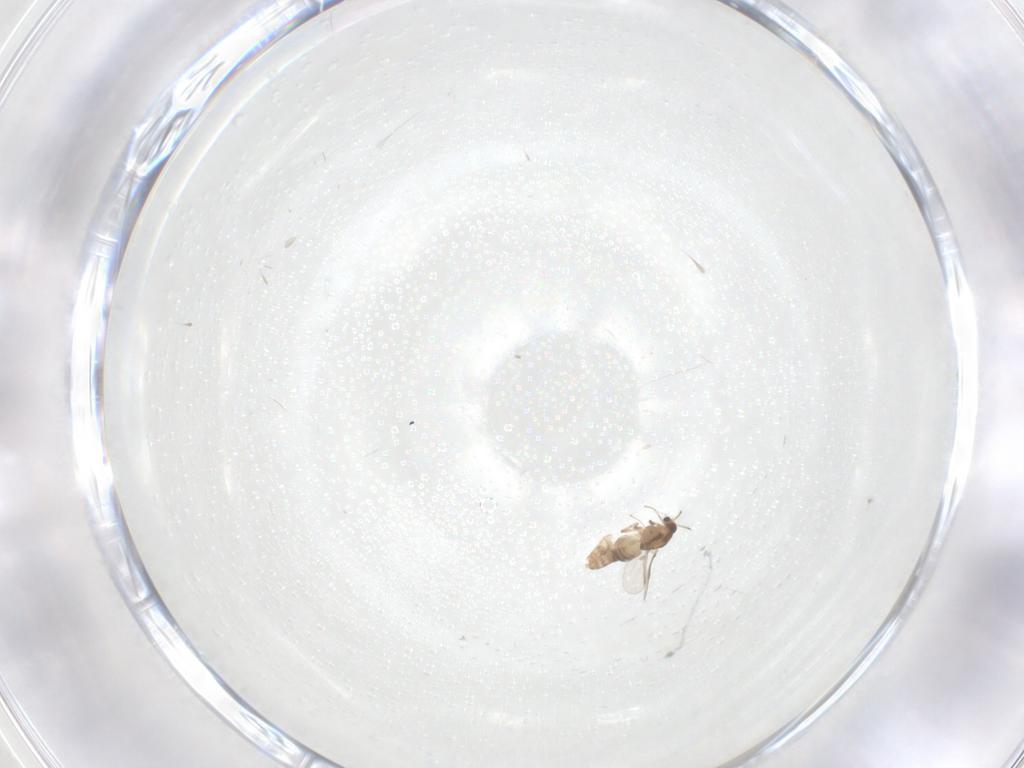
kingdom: Animalia
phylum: Arthropoda
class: Insecta
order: Diptera
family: Chironomidae
